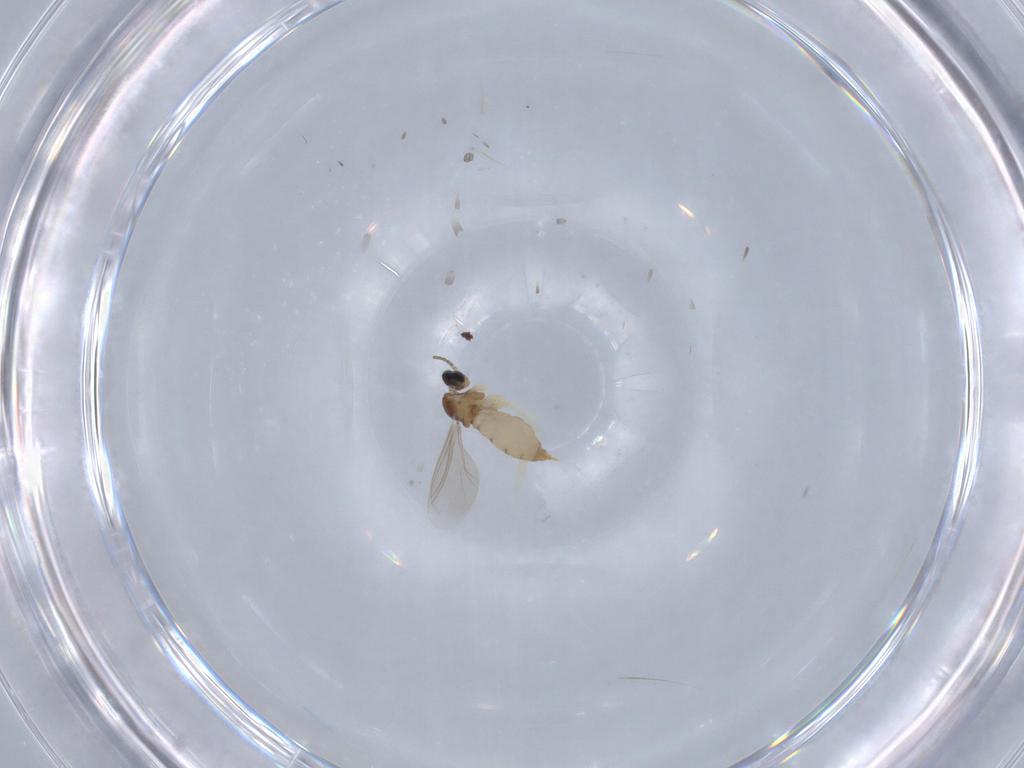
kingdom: Animalia
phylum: Arthropoda
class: Insecta
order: Diptera
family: Cecidomyiidae
